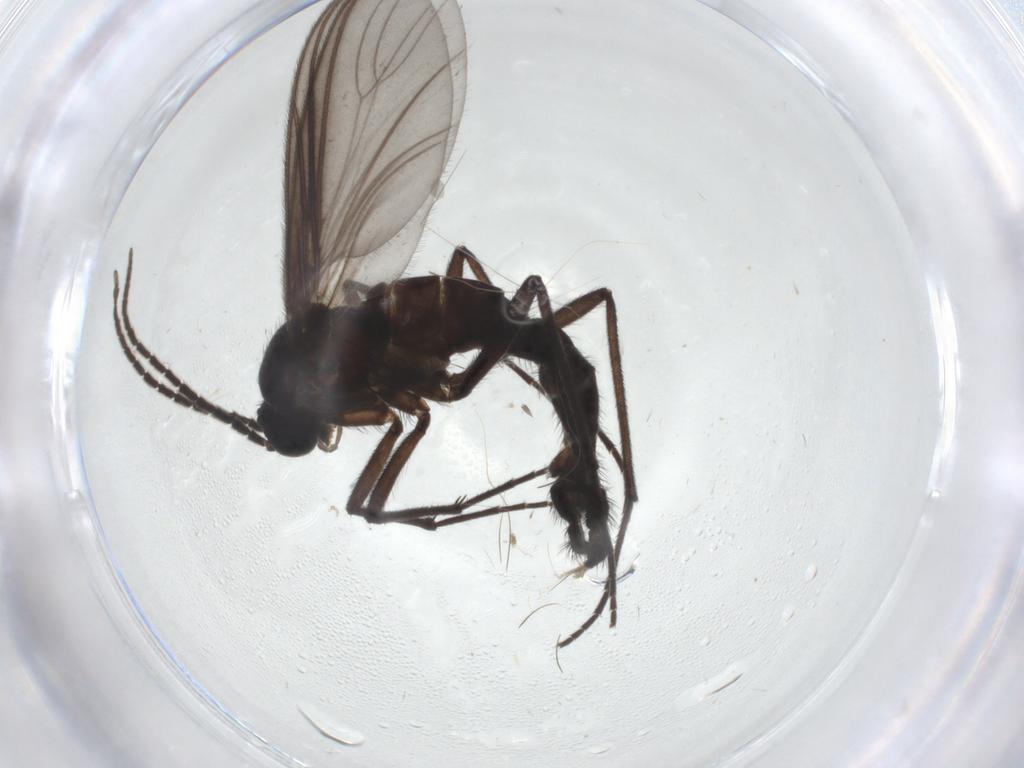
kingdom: Animalia
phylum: Arthropoda
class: Insecta
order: Diptera
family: Sciaridae
